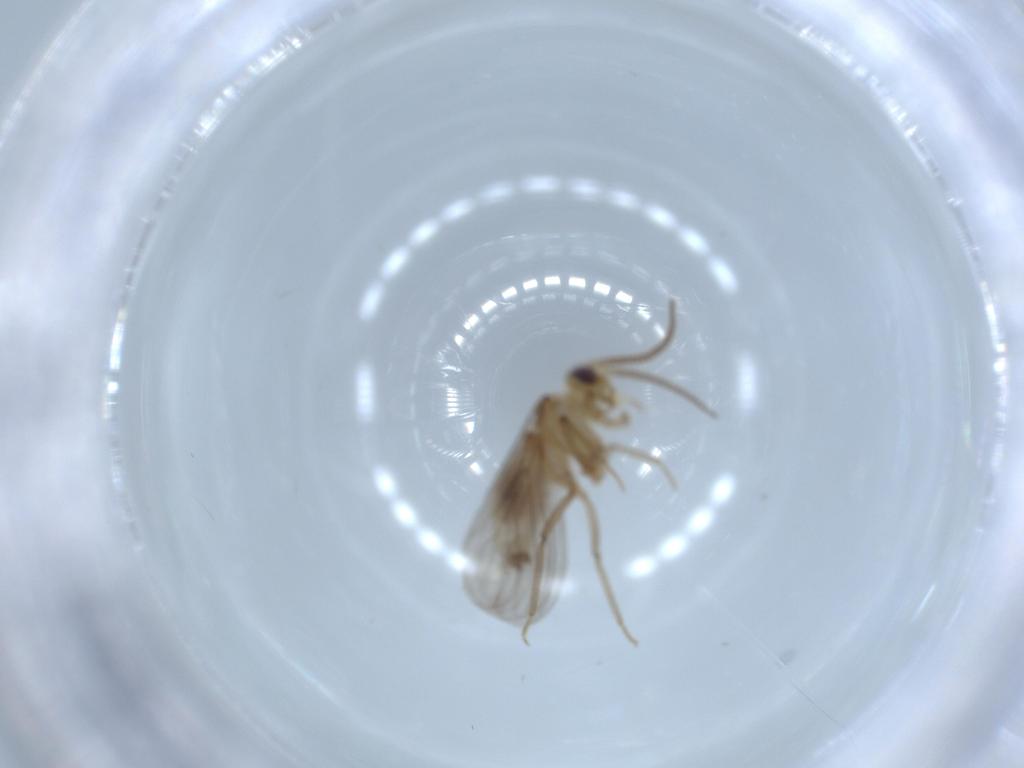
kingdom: Animalia
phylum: Arthropoda
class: Insecta
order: Neuroptera
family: Coniopterygidae
